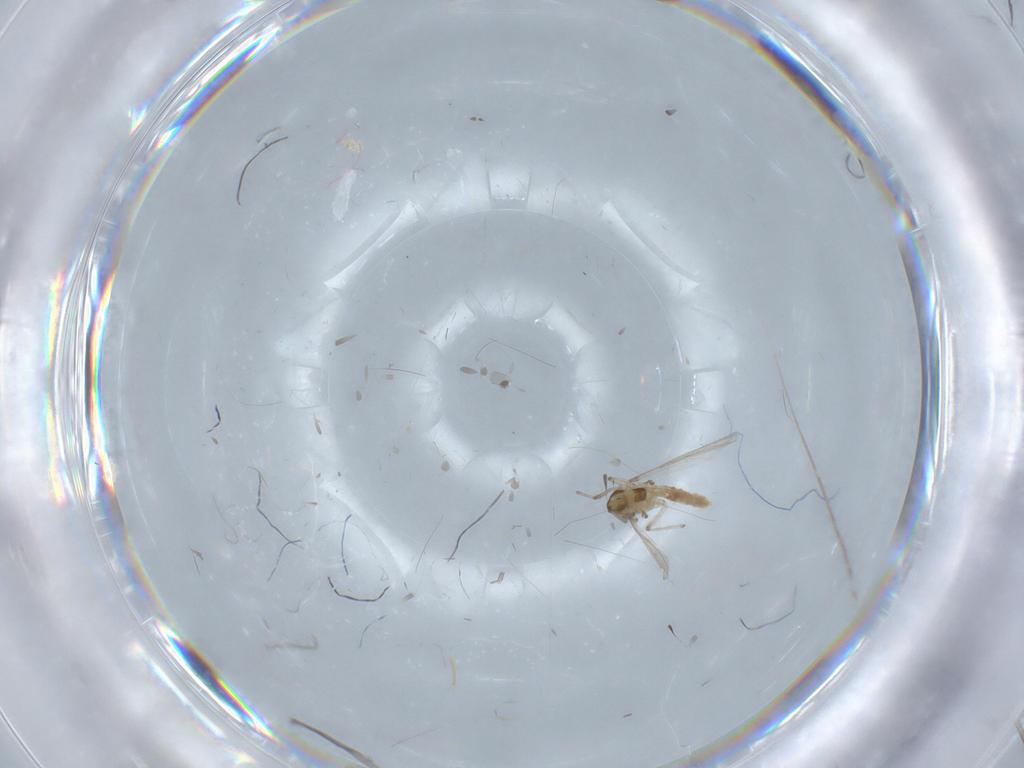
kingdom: Animalia
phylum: Arthropoda
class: Insecta
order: Diptera
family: Chironomidae
